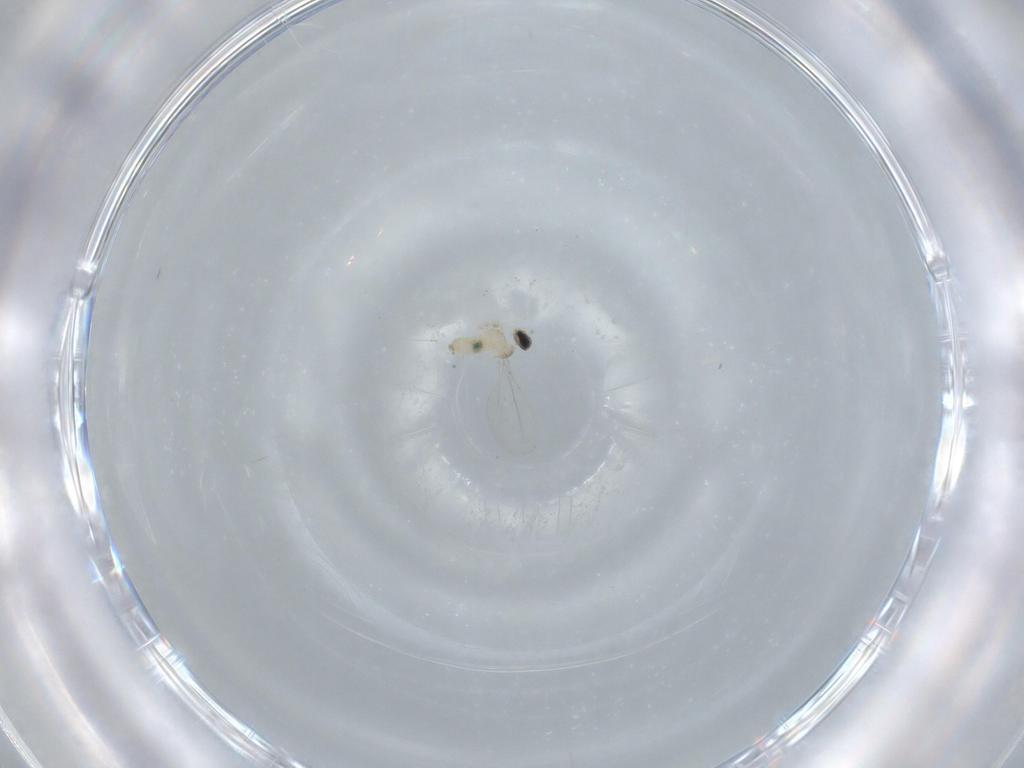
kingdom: Animalia
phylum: Arthropoda
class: Insecta
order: Diptera
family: Cecidomyiidae
